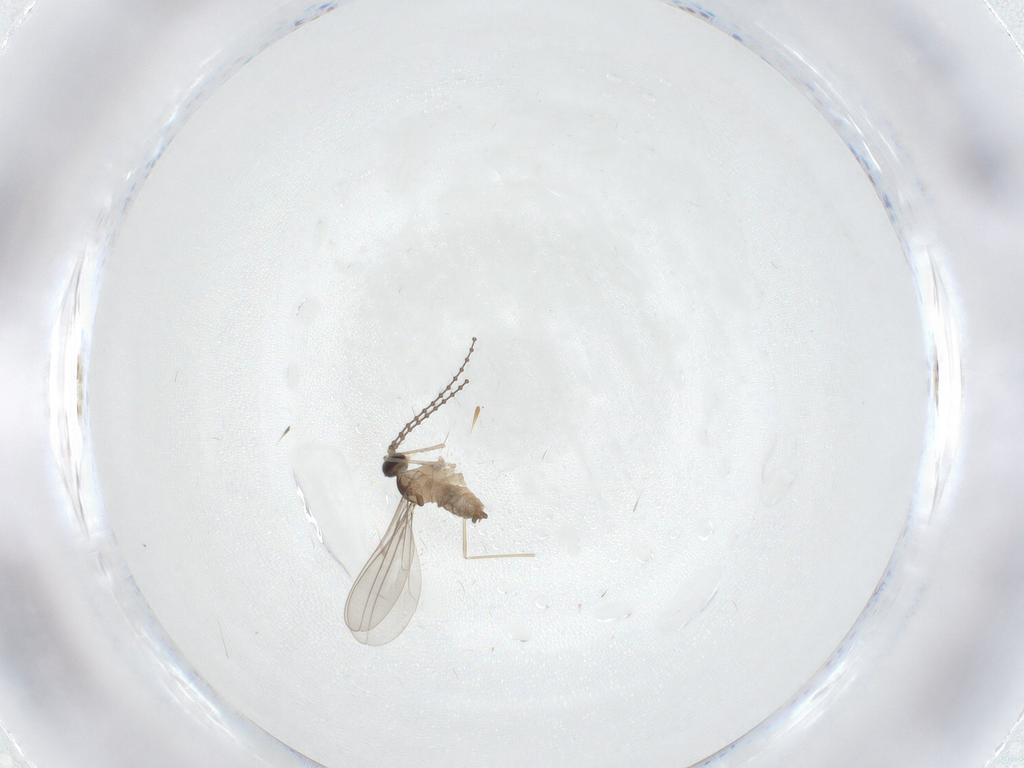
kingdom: Animalia
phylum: Arthropoda
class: Insecta
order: Diptera
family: Cecidomyiidae
